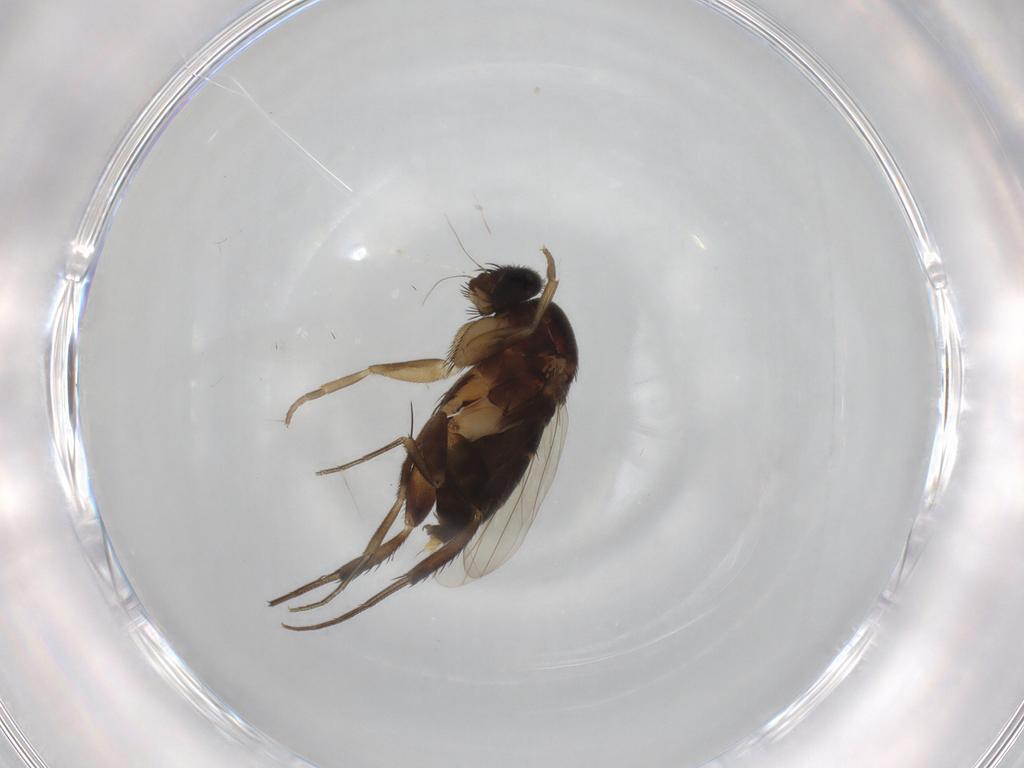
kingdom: Animalia
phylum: Arthropoda
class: Insecta
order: Diptera
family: Phoridae
